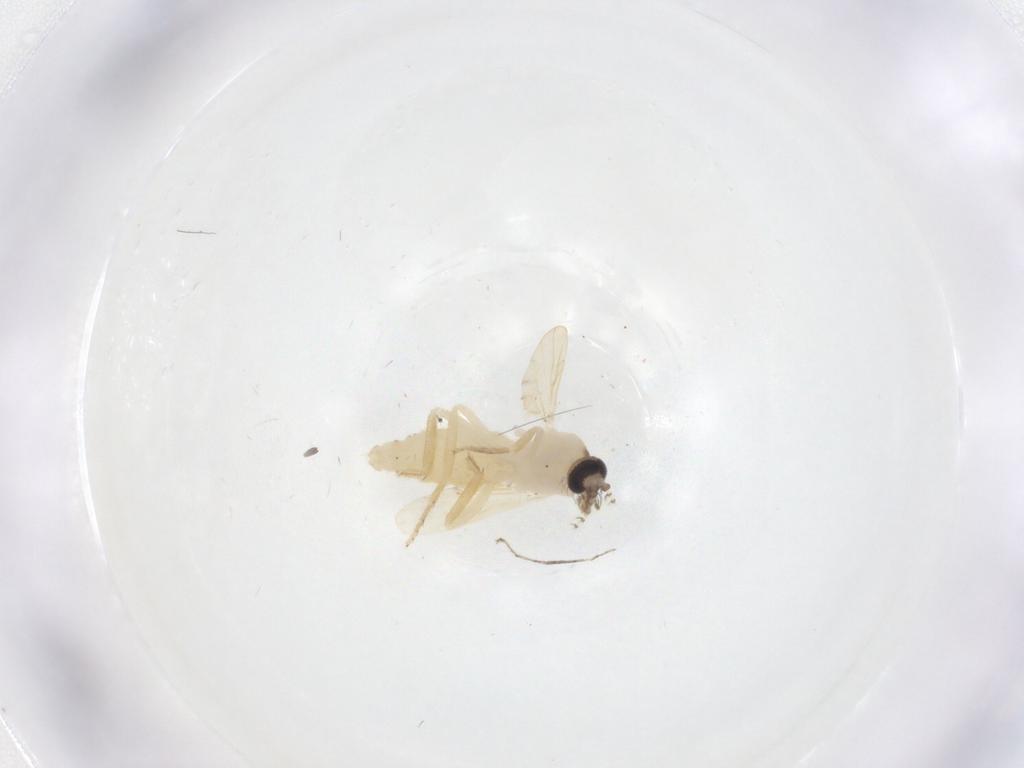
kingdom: Animalia
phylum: Arthropoda
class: Insecta
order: Diptera
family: Ceratopogonidae
